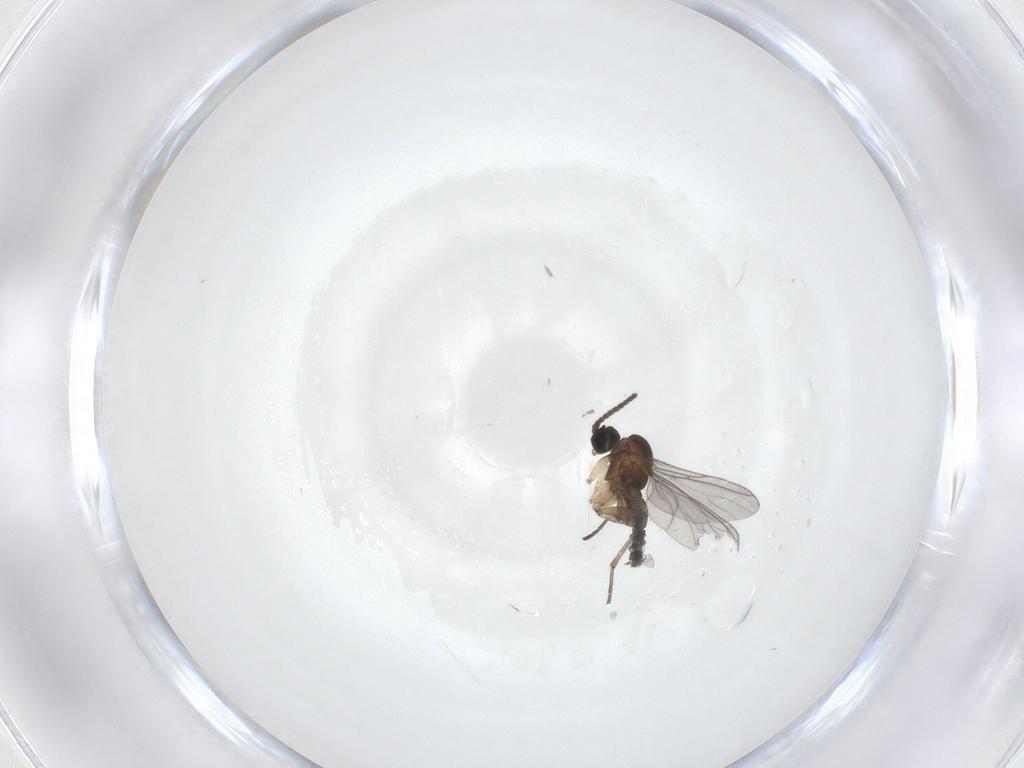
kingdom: Animalia
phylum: Arthropoda
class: Insecta
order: Diptera
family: Sciaridae
